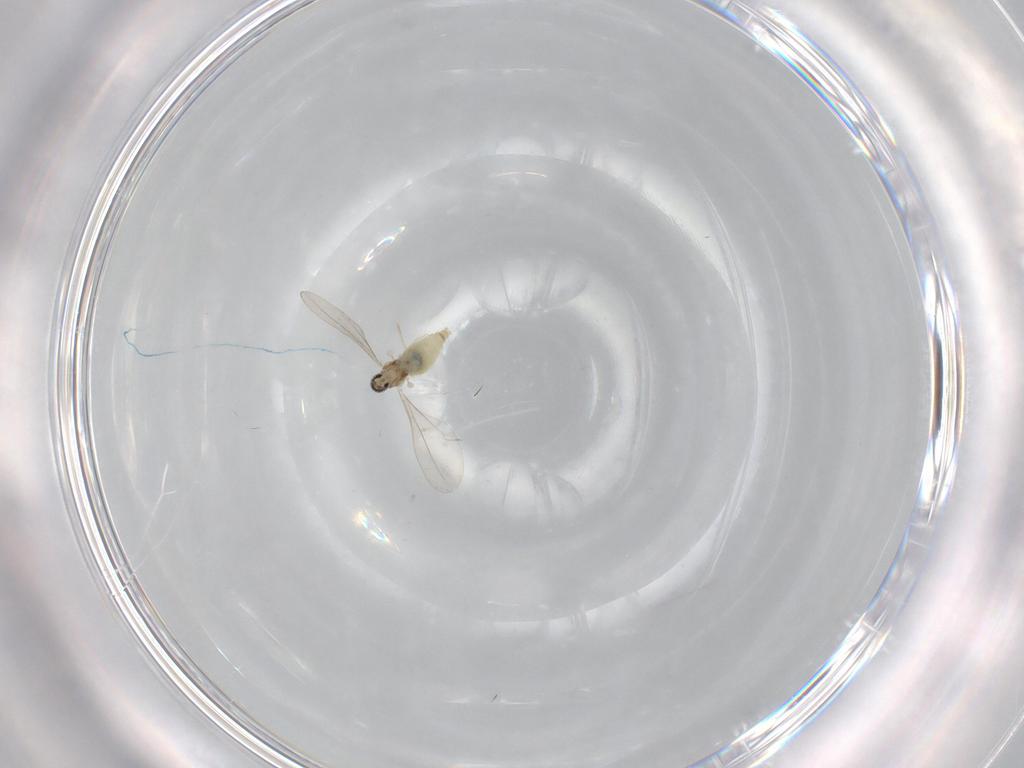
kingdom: Animalia
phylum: Arthropoda
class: Insecta
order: Diptera
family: Ceratopogonidae
